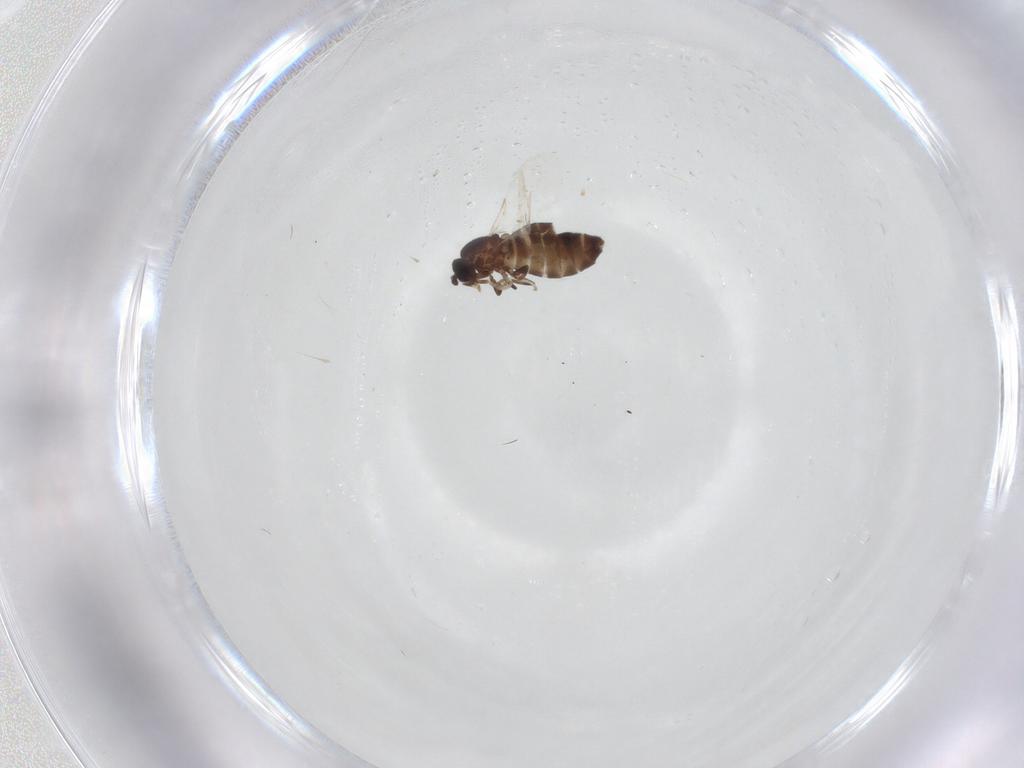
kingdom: Animalia
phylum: Arthropoda
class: Insecta
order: Diptera
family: Scatopsidae
